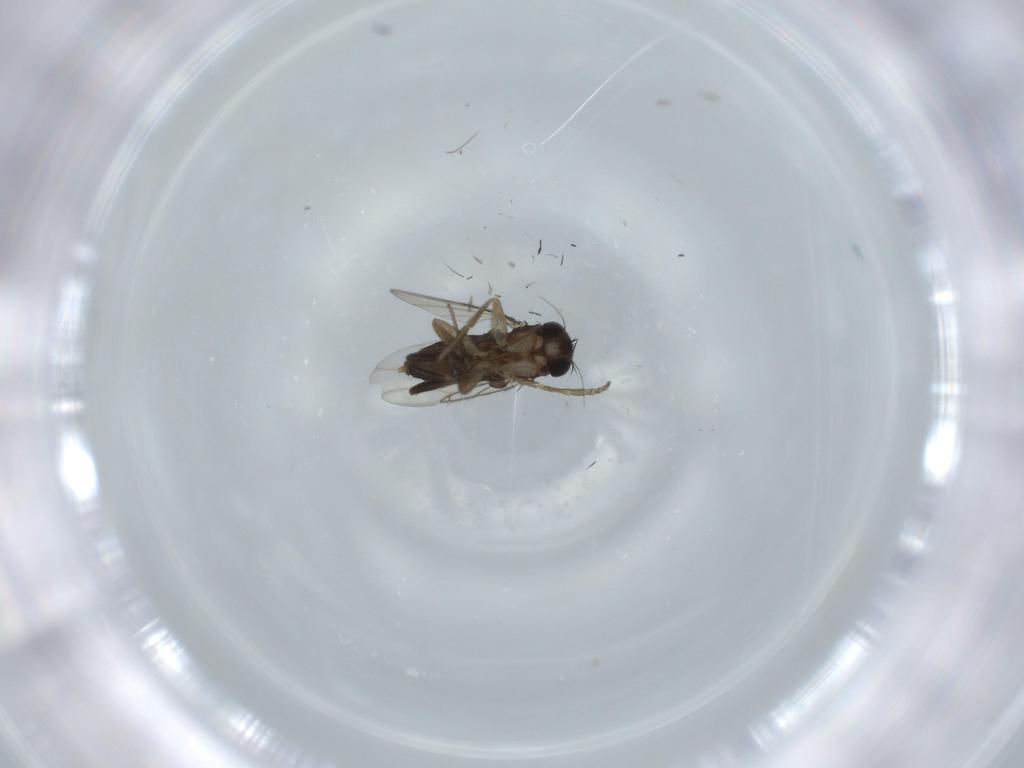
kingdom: Animalia
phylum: Arthropoda
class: Insecta
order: Diptera
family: Phoridae
